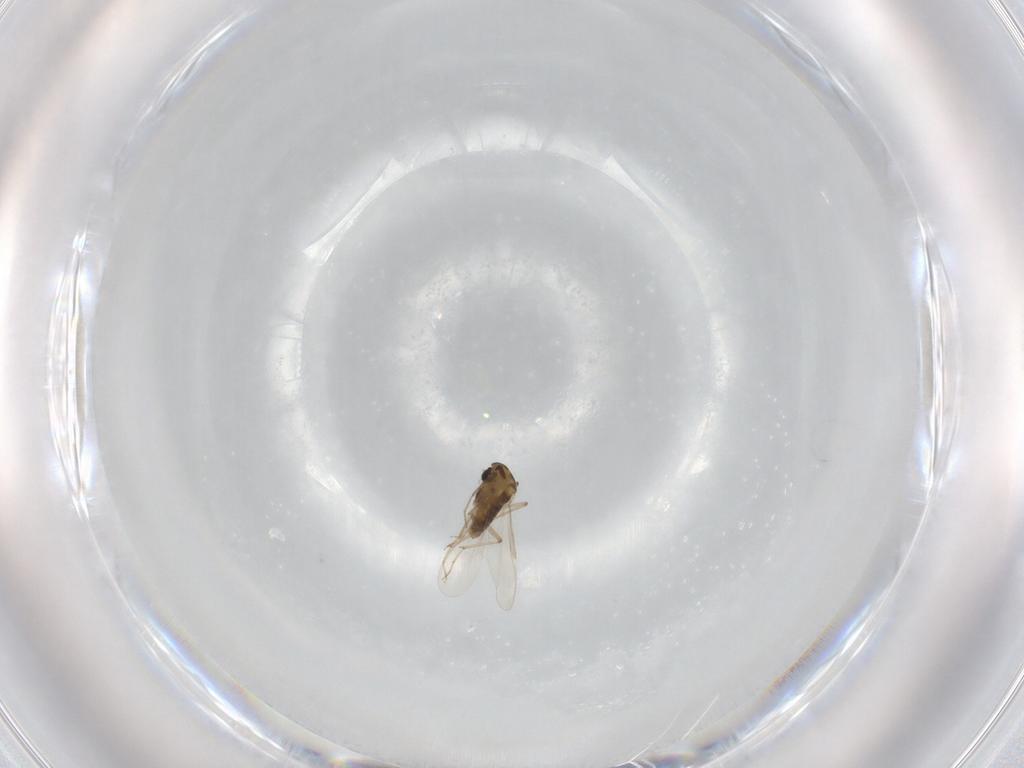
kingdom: Animalia
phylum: Arthropoda
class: Insecta
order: Diptera
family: Chironomidae
